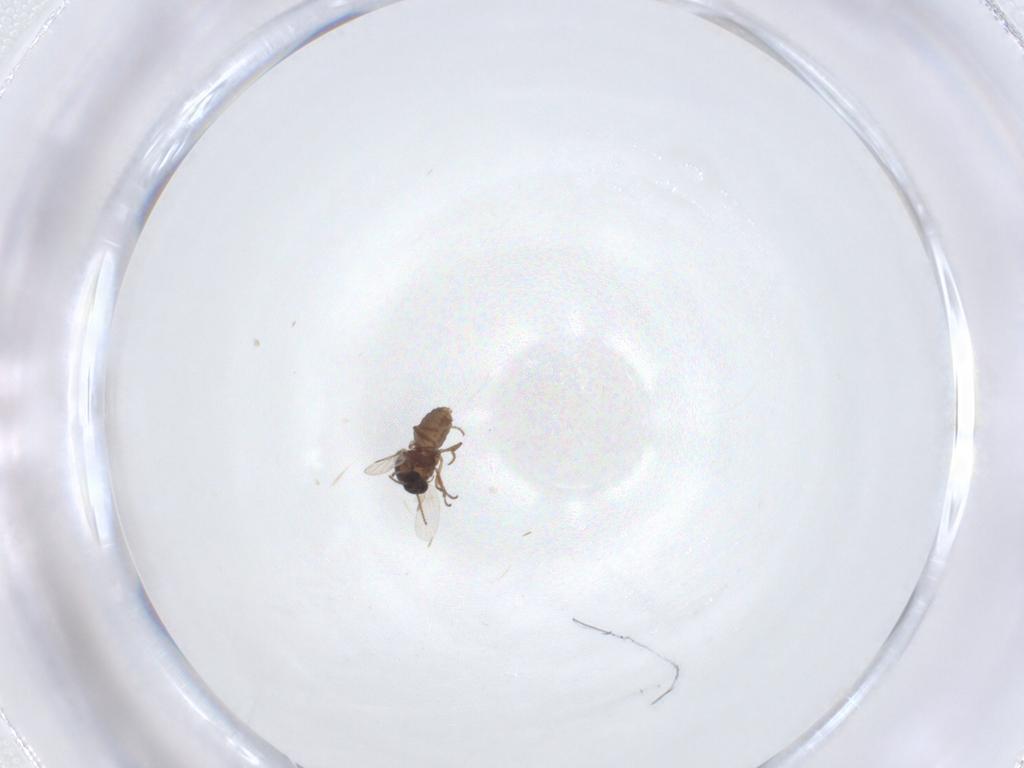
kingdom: Animalia
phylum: Arthropoda
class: Insecta
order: Diptera
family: Ceratopogonidae
